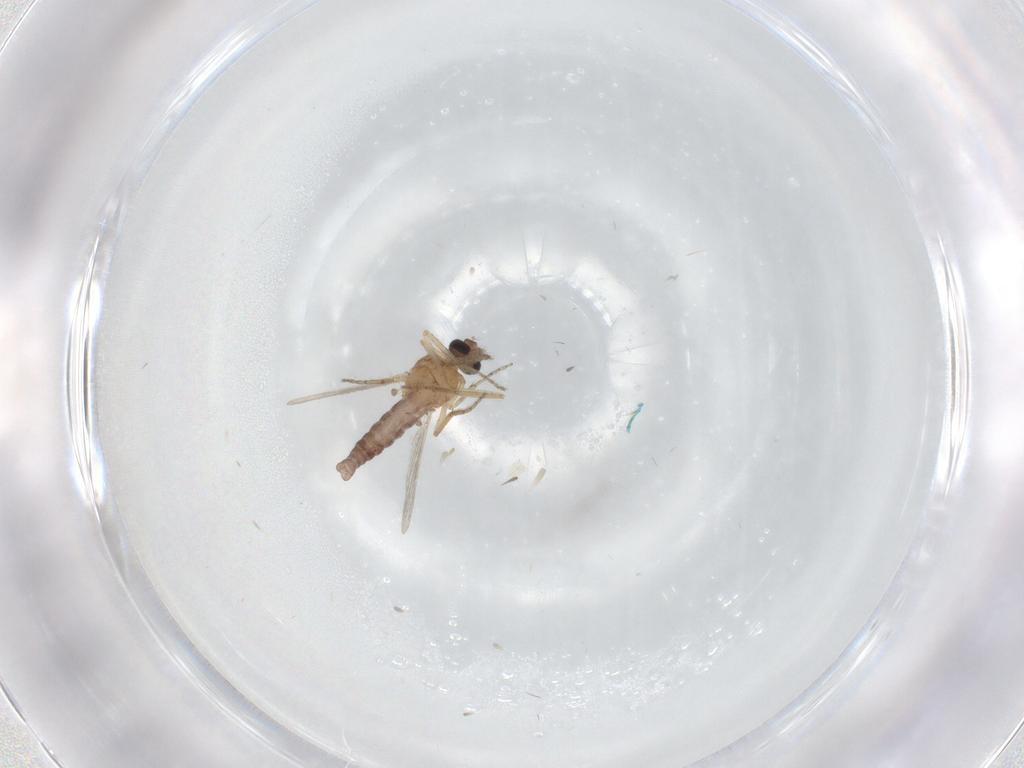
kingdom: Animalia
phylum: Arthropoda
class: Insecta
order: Diptera
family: Ceratopogonidae
